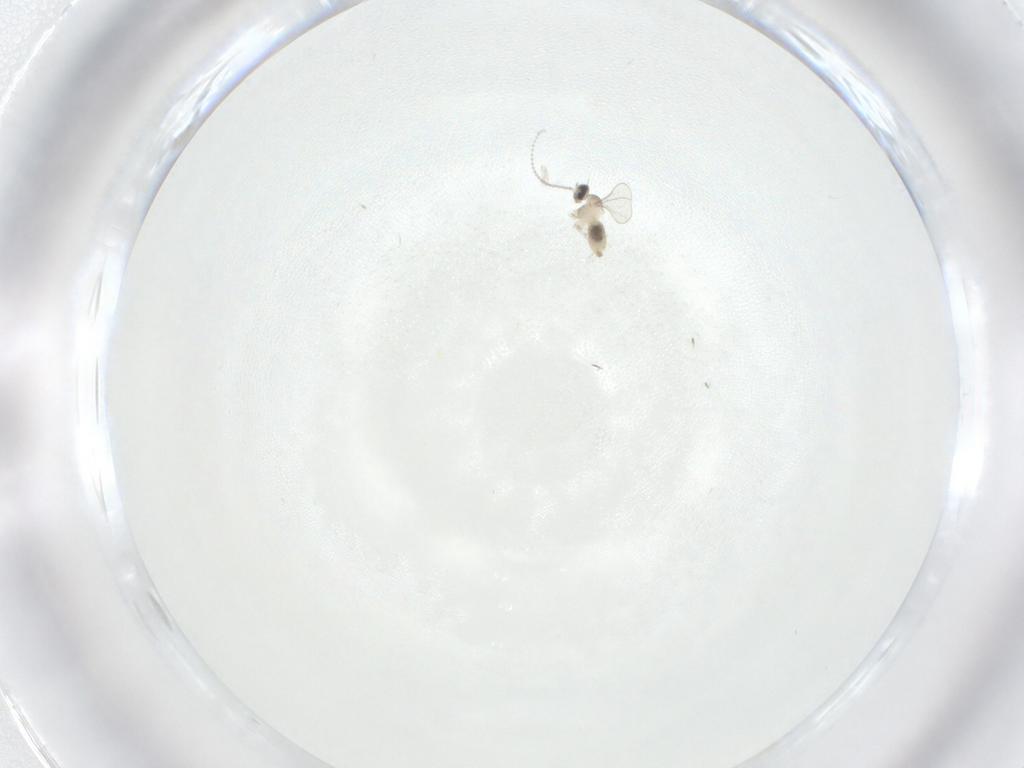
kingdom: Animalia
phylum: Arthropoda
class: Insecta
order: Diptera
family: Cecidomyiidae
